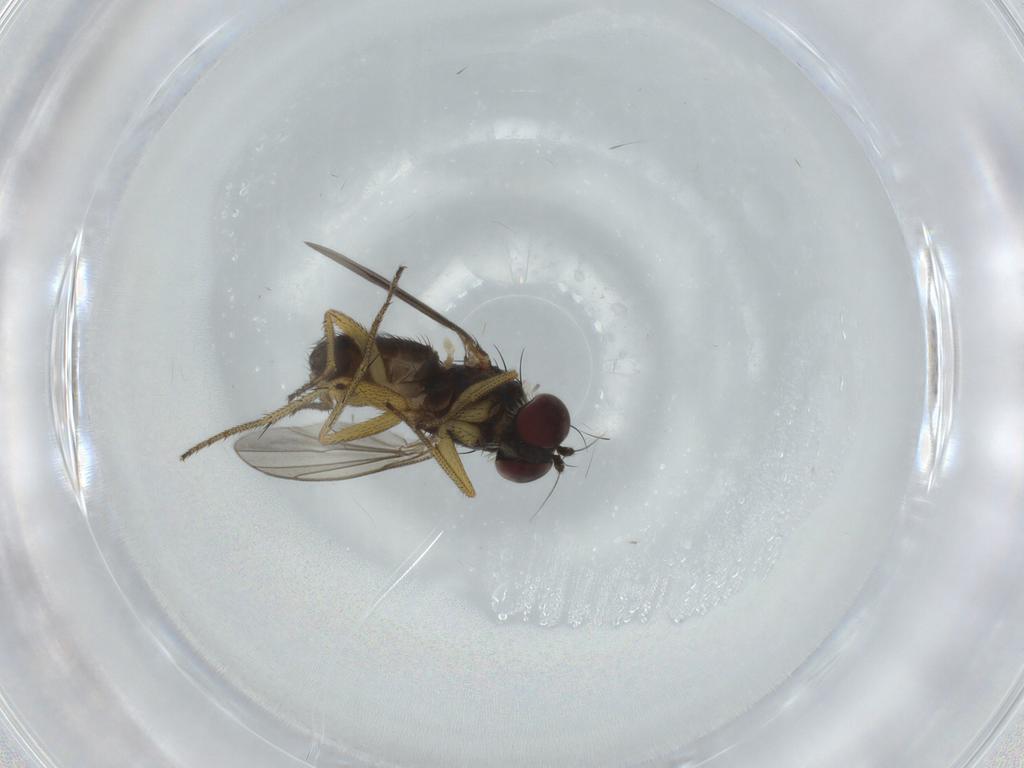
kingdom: Animalia
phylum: Arthropoda
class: Insecta
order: Diptera
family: Dolichopodidae
